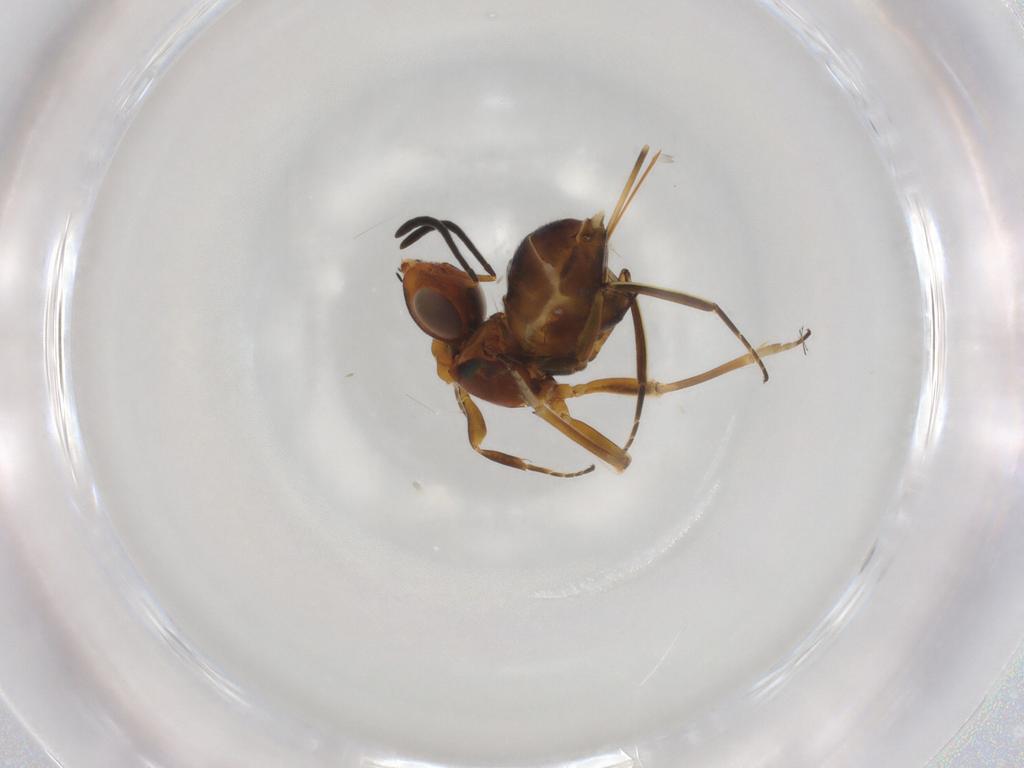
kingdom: Animalia
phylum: Arthropoda
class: Insecta
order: Hymenoptera
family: Eupelmidae
